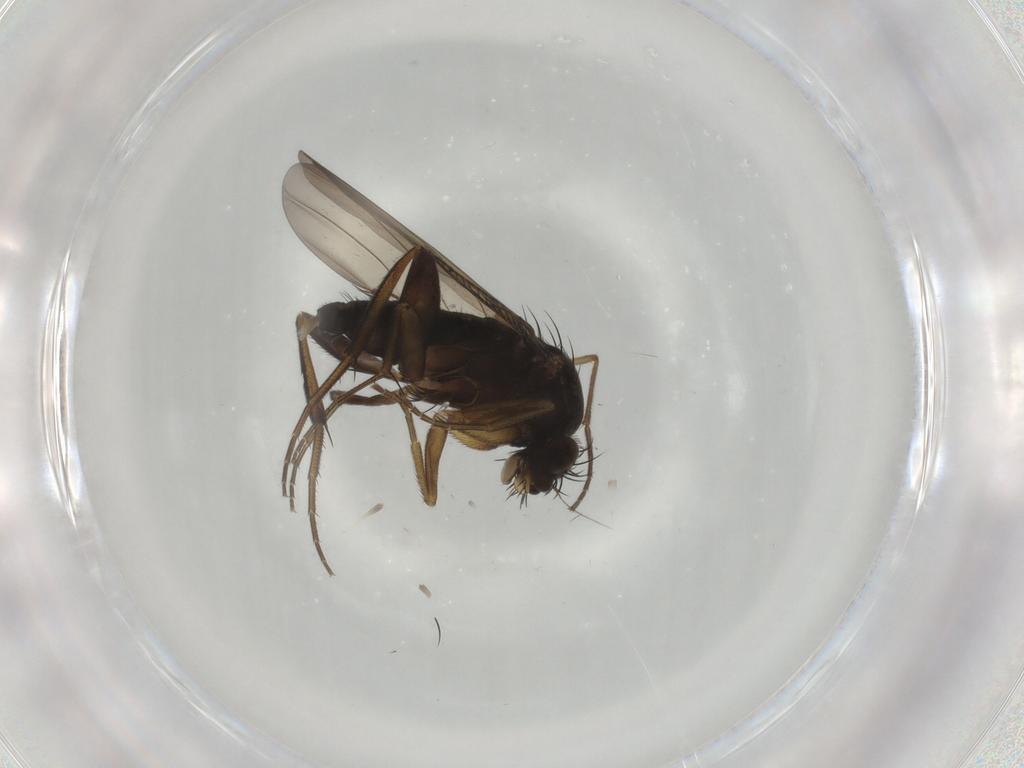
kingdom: Animalia
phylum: Arthropoda
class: Insecta
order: Diptera
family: Phoridae
